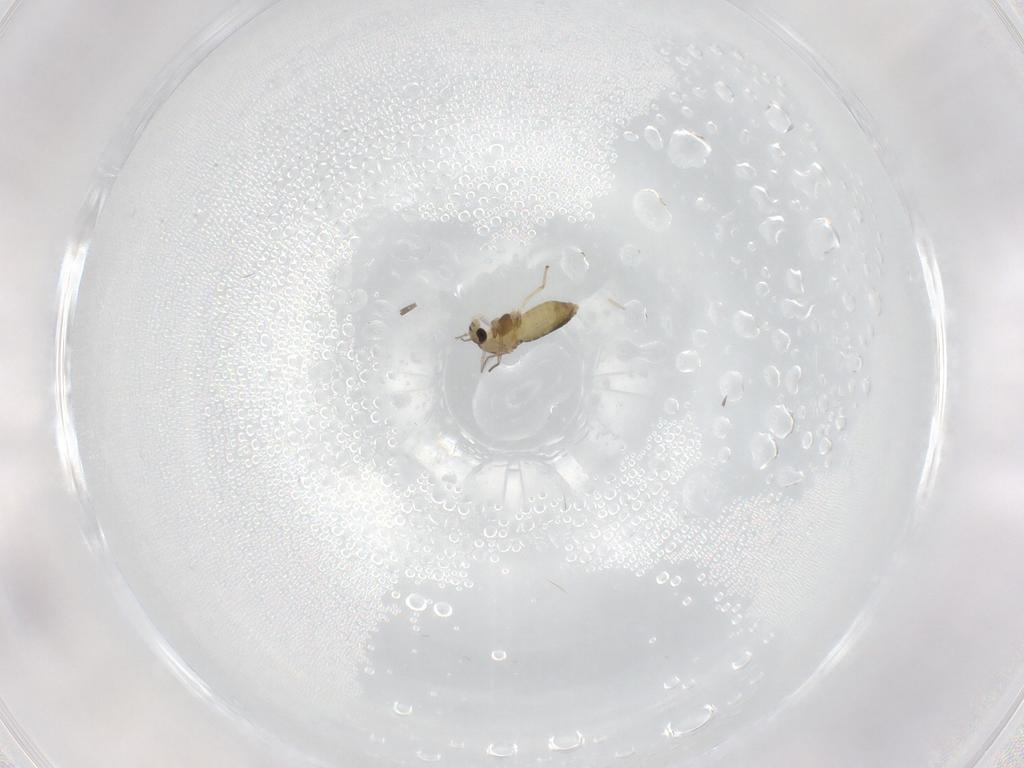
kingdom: Animalia
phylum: Arthropoda
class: Insecta
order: Diptera
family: Chironomidae
